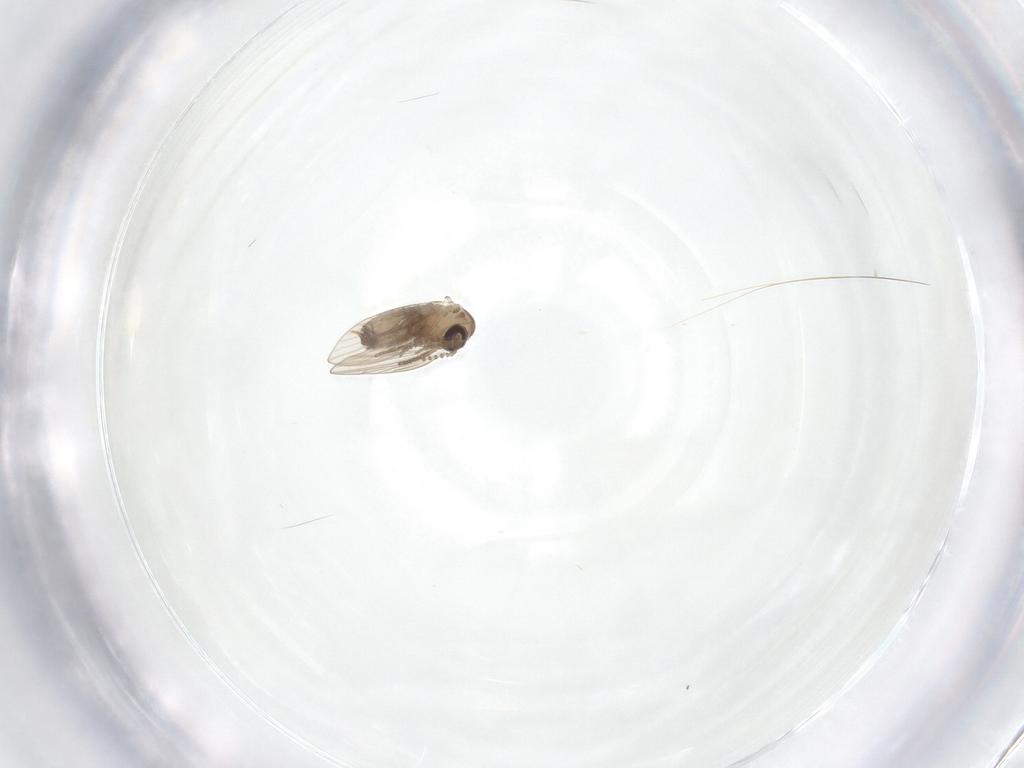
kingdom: Animalia
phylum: Arthropoda
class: Insecta
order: Diptera
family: Psychodidae
